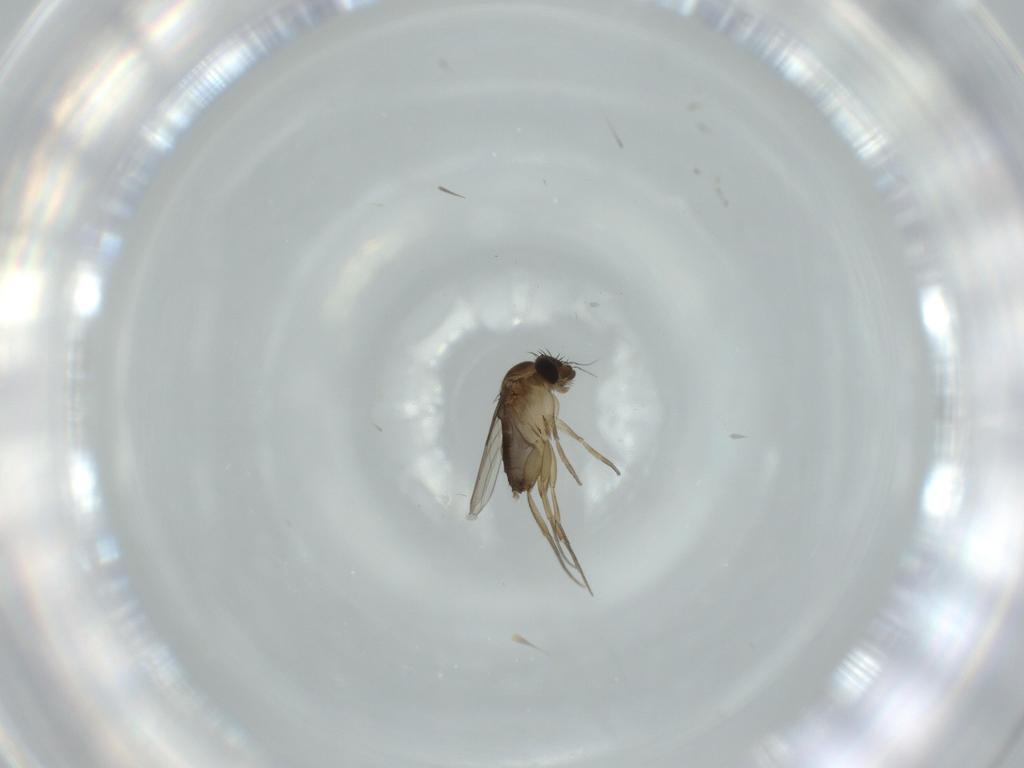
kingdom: Animalia
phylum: Arthropoda
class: Insecta
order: Diptera
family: Phoridae
